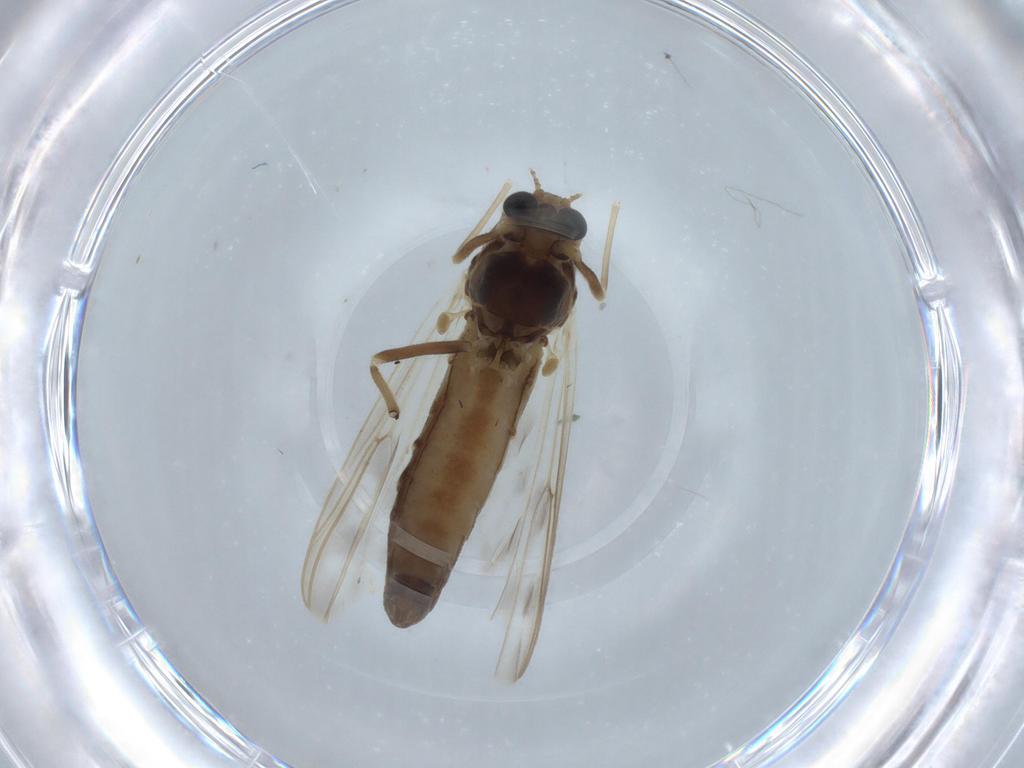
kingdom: Animalia
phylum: Arthropoda
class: Insecta
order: Diptera
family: Chironomidae
